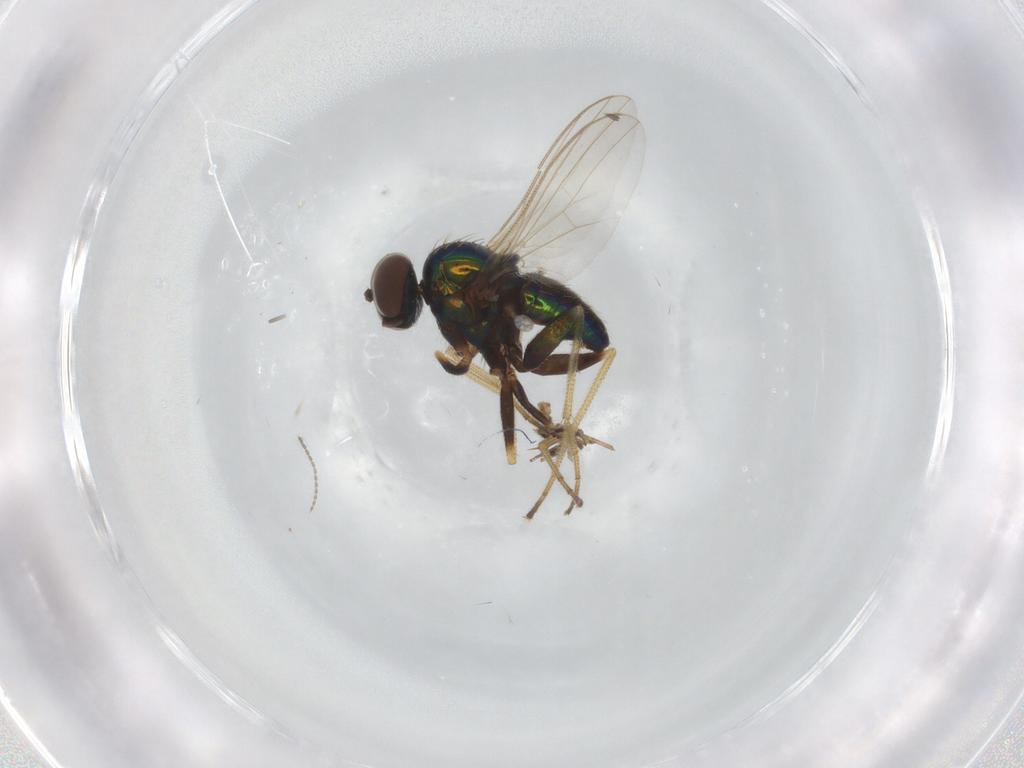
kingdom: Animalia
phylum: Arthropoda
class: Insecta
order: Diptera
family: Dolichopodidae
